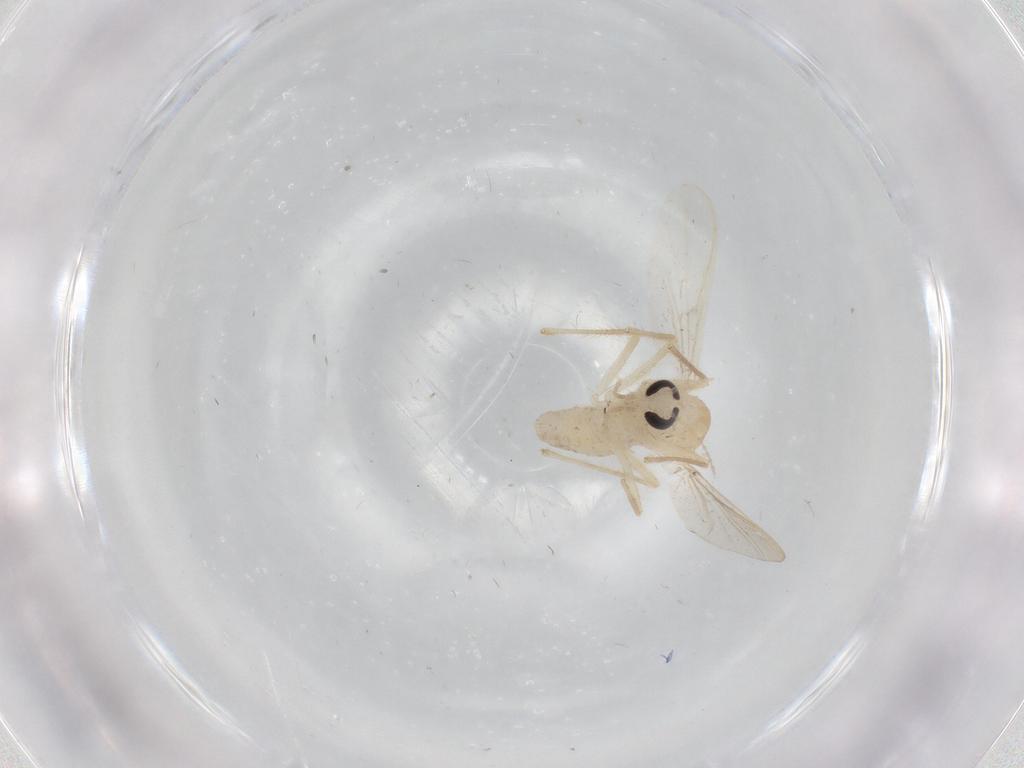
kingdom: Animalia
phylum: Arthropoda
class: Insecta
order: Diptera
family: Chironomidae
